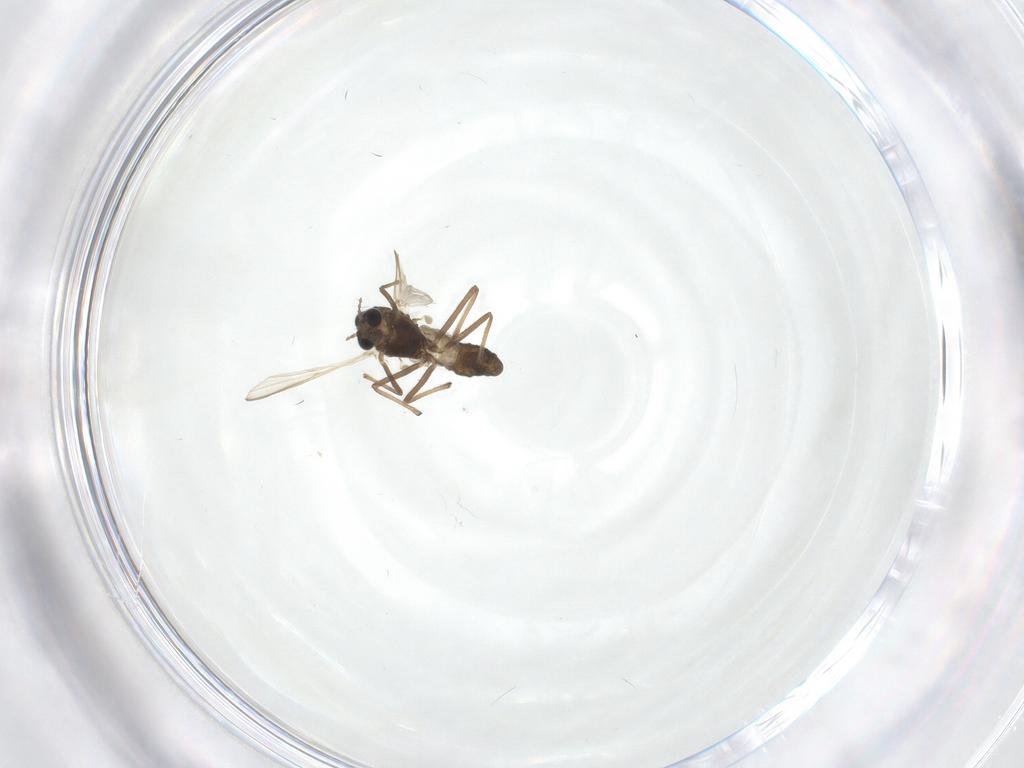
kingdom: Animalia
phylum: Arthropoda
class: Insecta
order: Diptera
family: Chironomidae
